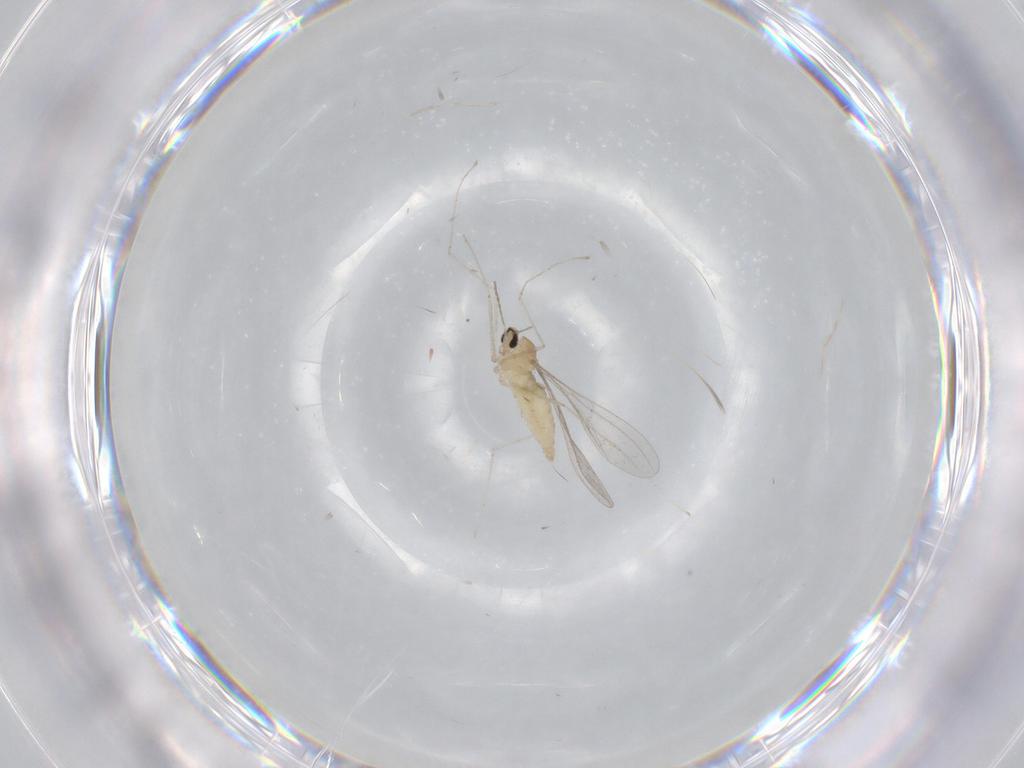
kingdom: Animalia
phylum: Arthropoda
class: Insecta
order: Diptera
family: Cecidomyiidae
